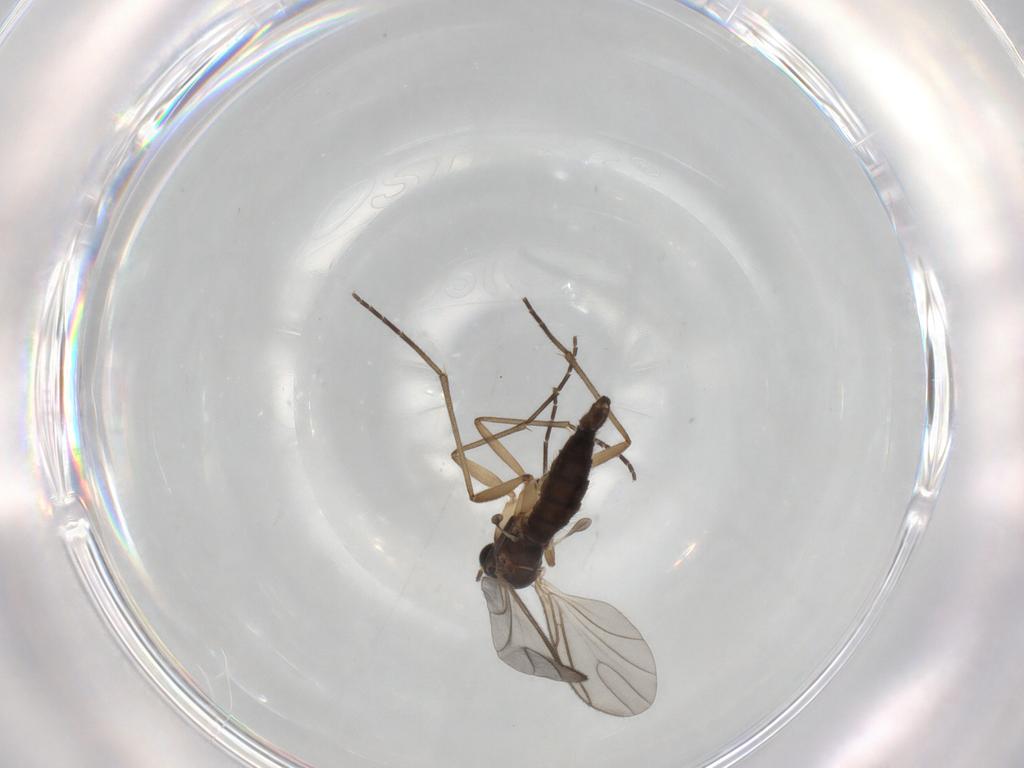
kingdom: Animalia
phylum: Arthropoda
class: Insecta
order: Diptera
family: Sciaridae
